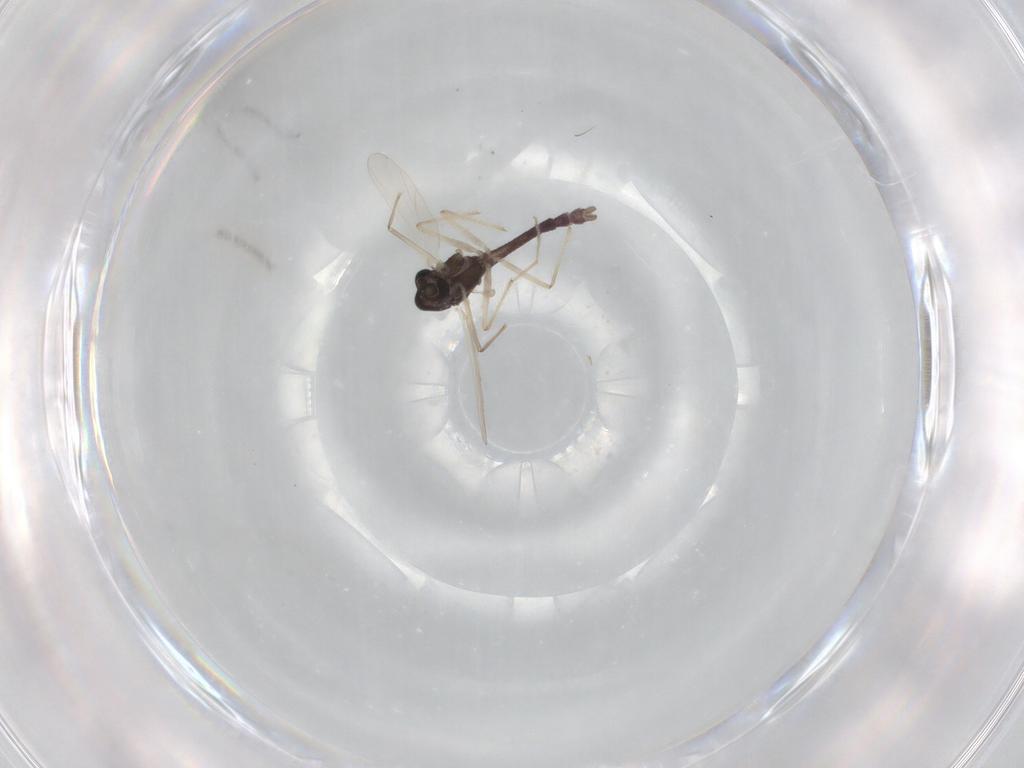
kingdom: Animalia
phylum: Arthropoda
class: Insecta
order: Diptera
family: Chironomidae
